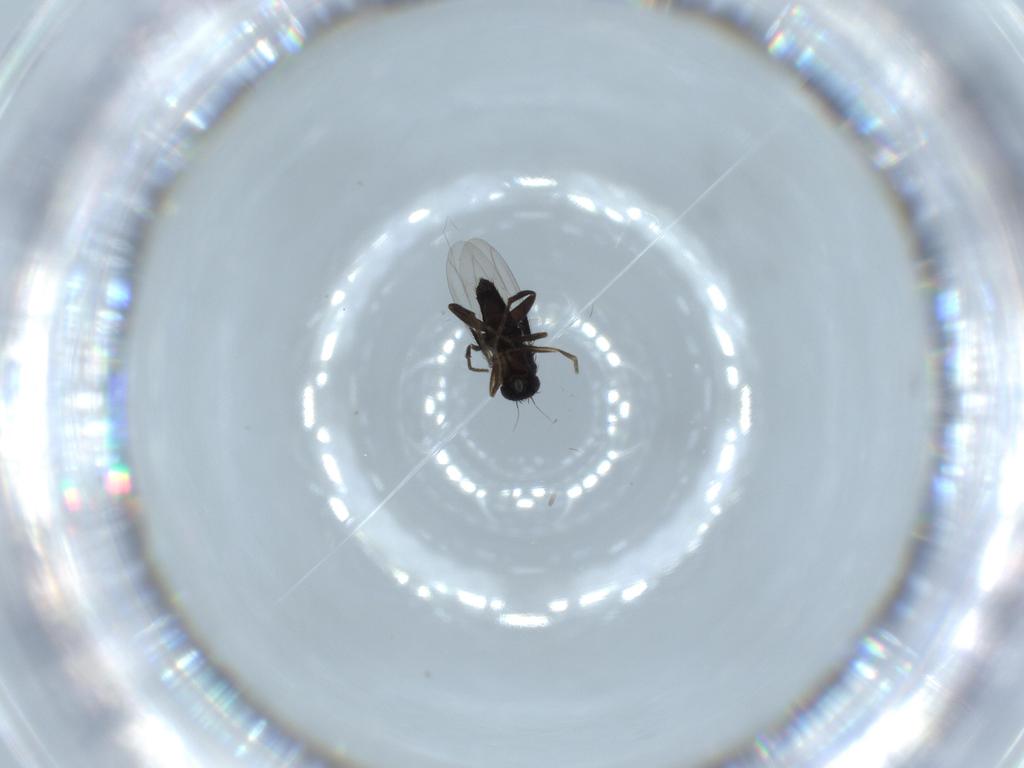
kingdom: Animalia
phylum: Arthropoda
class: Insecta
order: Diptera
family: Phoridae
